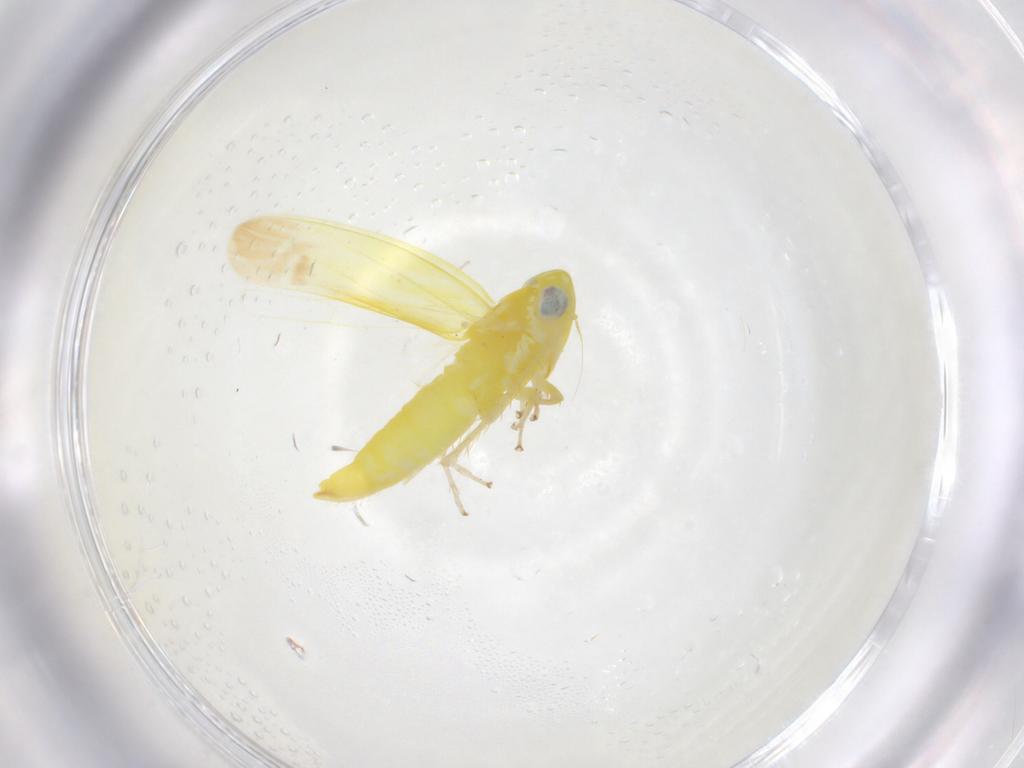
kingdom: Animalia
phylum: Arthropoda
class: Insecta
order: Hemiptera
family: Cicadellidae
